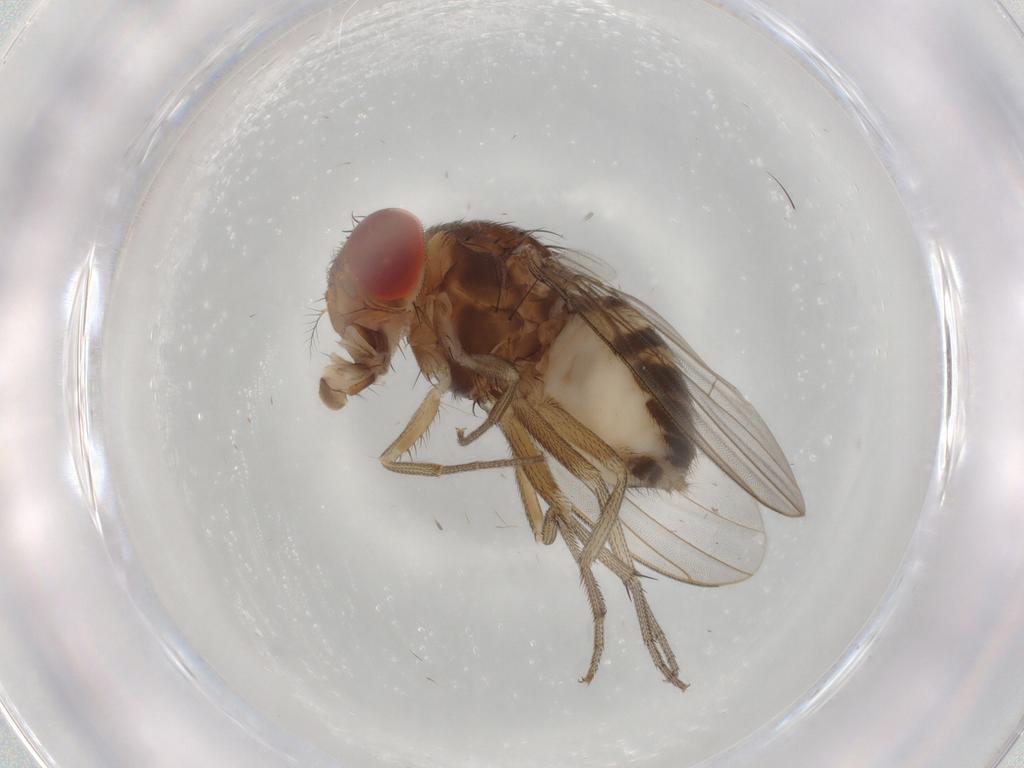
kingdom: Animalia
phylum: Arthropoda
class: Insecta
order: Diptera
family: Drosophilidae
